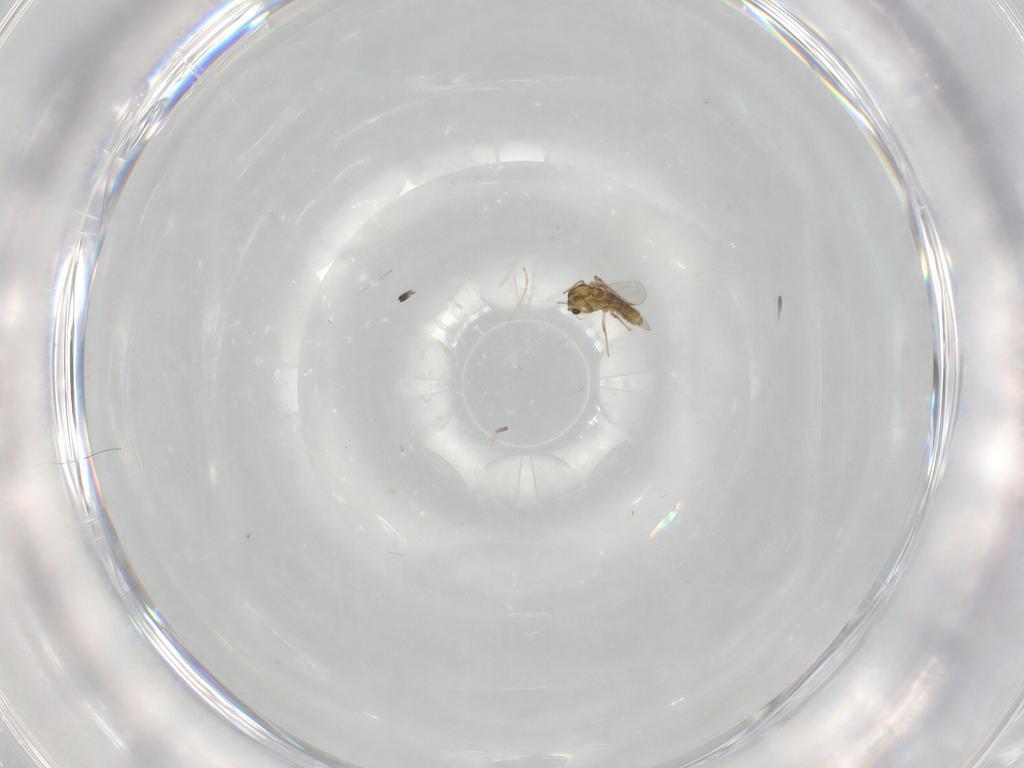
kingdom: Animalia
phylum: Arthropoda
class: Insecta
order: Diptera
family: Chironomidae
